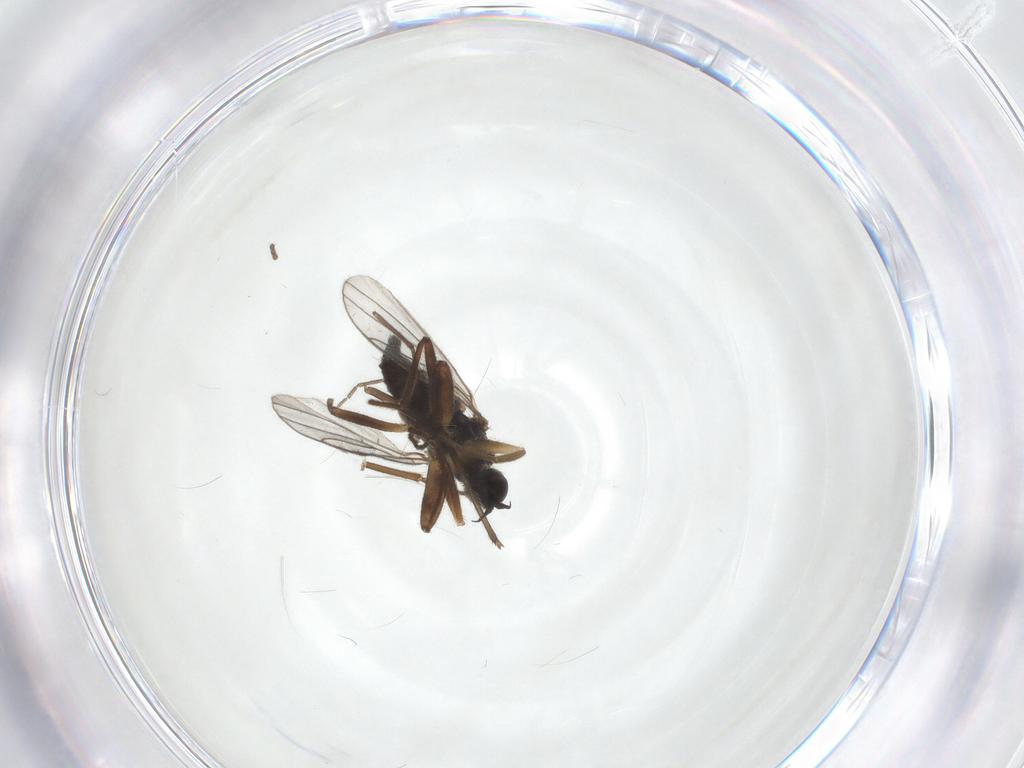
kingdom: Animalia
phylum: Arthropoda
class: Insecta
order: Diptera
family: Hybotidae
